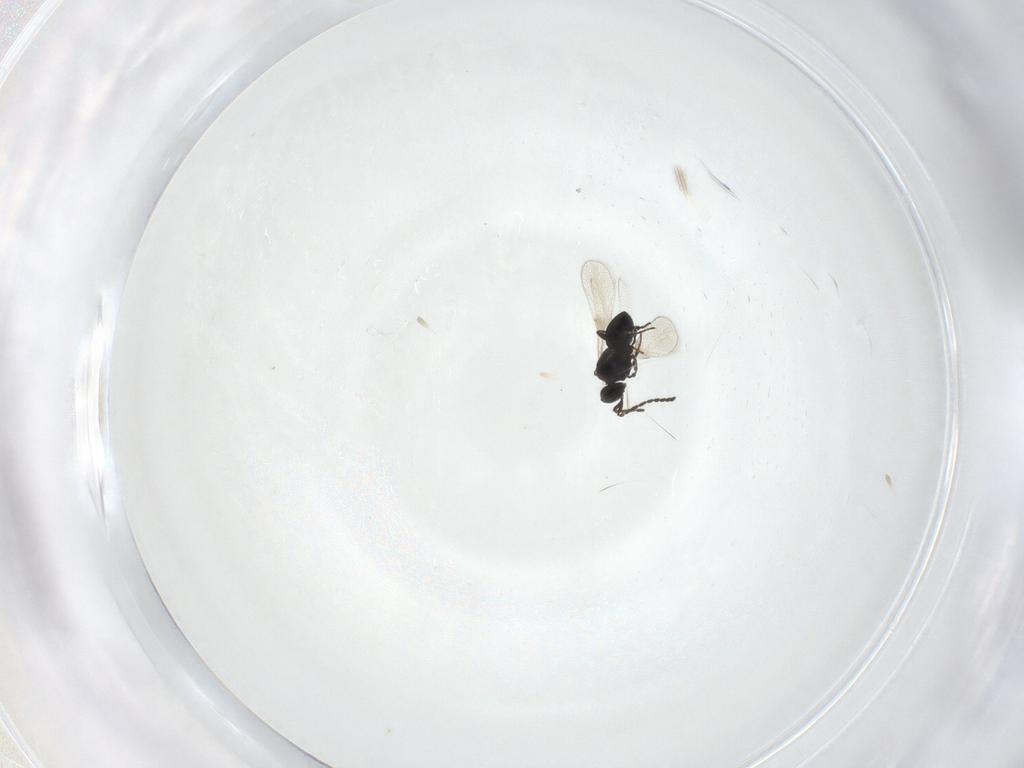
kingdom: Animalia
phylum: Arthropoda
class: Insecta
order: Hymenoptera
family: Platygastridae
